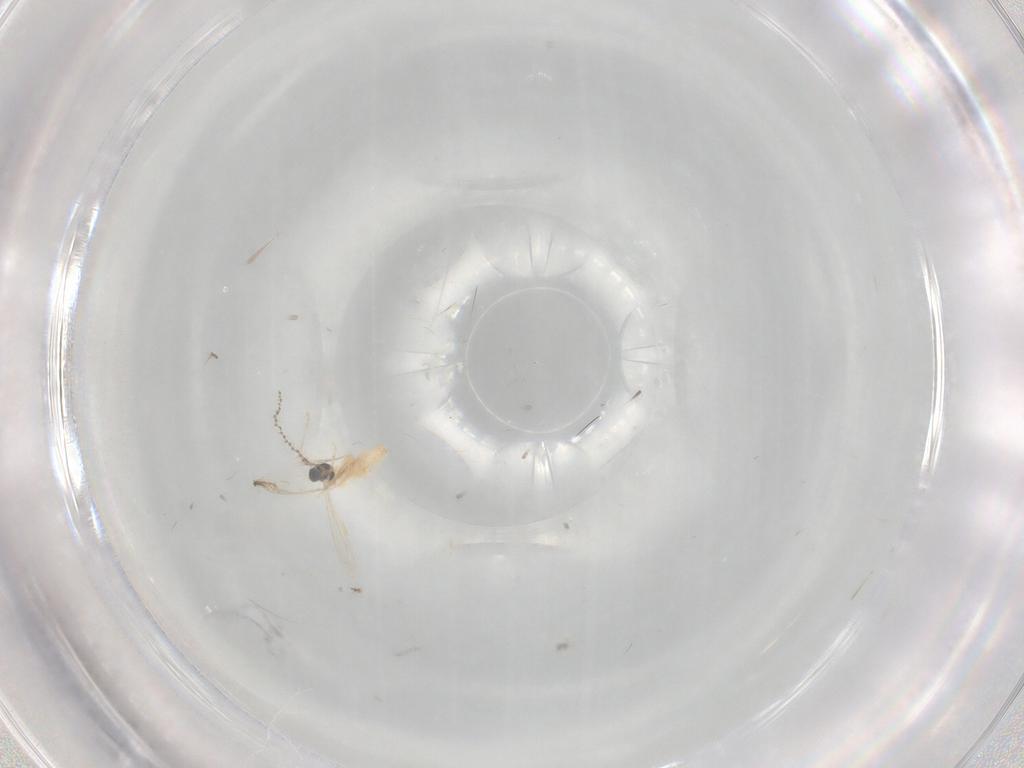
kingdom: Animalia
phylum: Arthropoda
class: Insecta
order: Diptera
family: Cecidomyiidae
